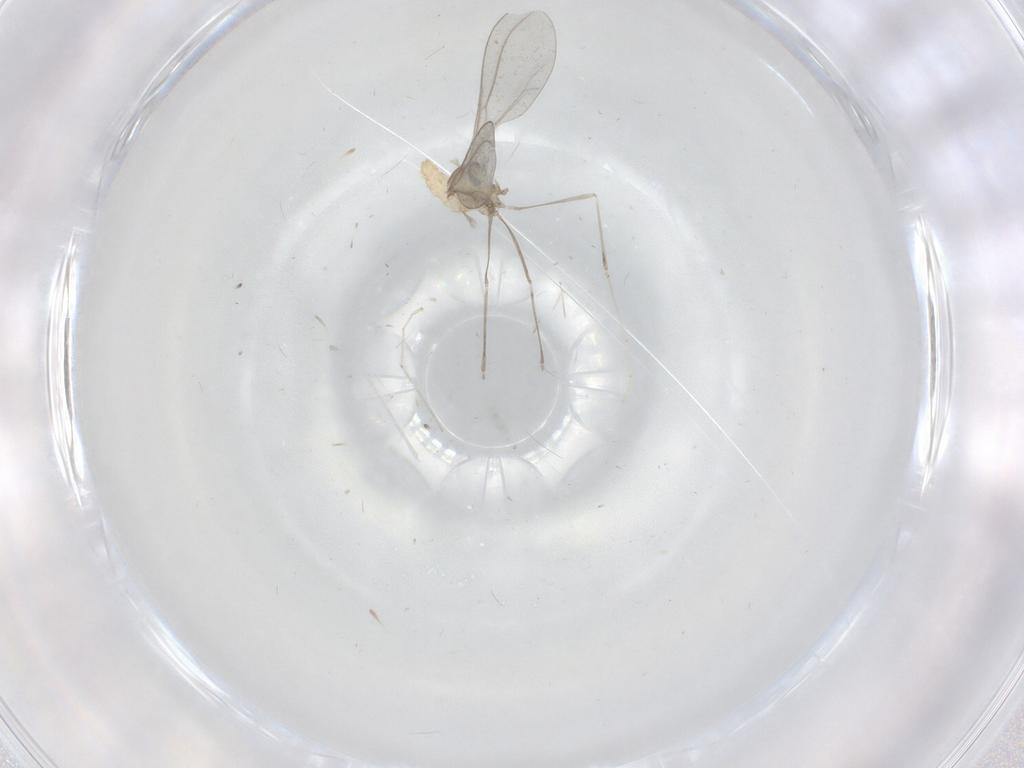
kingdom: Animalia
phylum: Arthropoda
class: Insecta
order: Diptera
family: Cecidomyiidae
